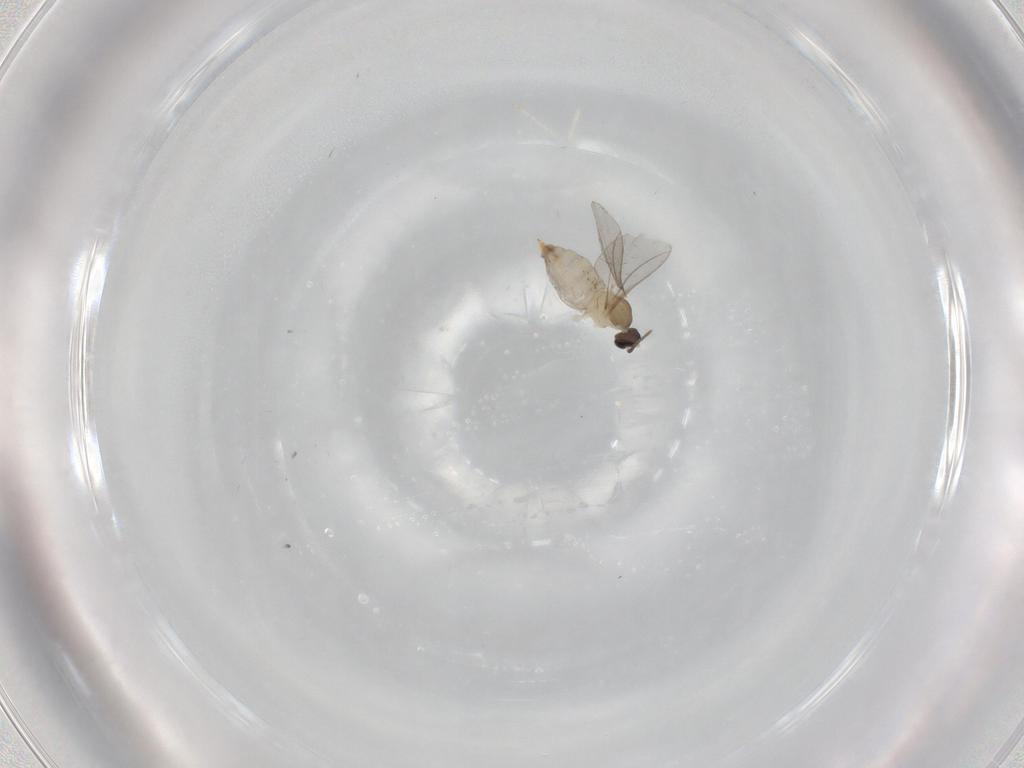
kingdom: Animalia
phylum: Arthropoda
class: Insecta
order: Diptera
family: Cecidomyiidae
